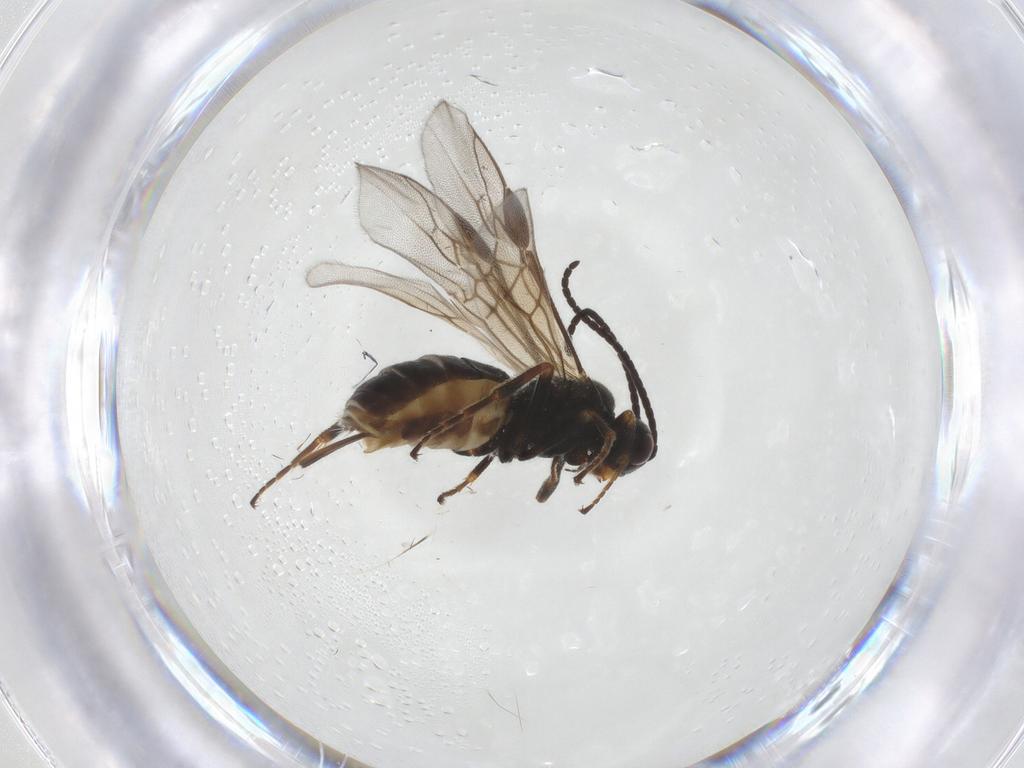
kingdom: Animalia
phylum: Arthropoda
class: Insecta
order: Hymenoptera
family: Braconidae
